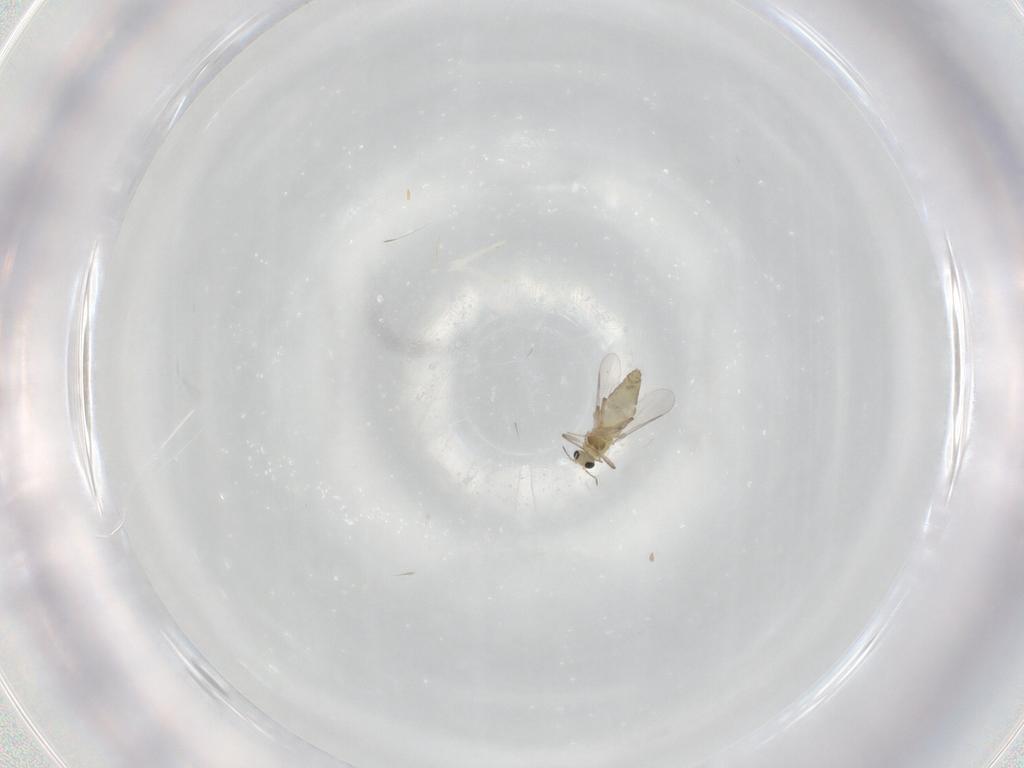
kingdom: Animalia
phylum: Arthropoda
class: Insecta
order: Diptera
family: Chironomidae
